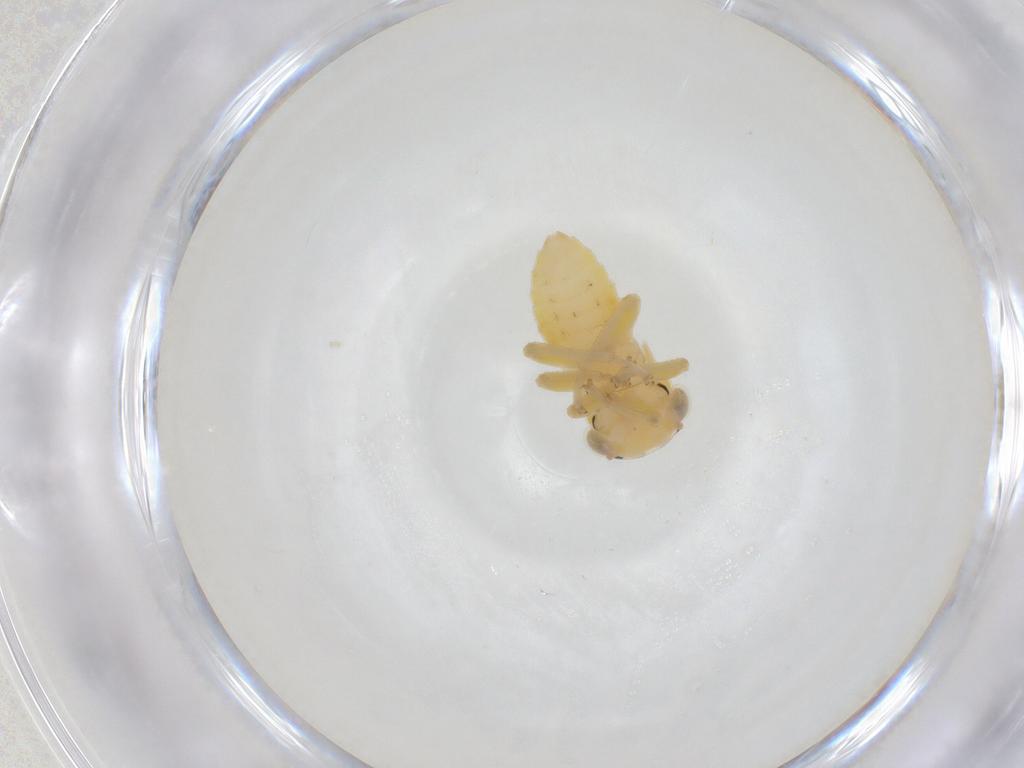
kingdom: Animalia
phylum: Arthropoda
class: Insecta
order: Hemiptera
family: Cicadellidae
